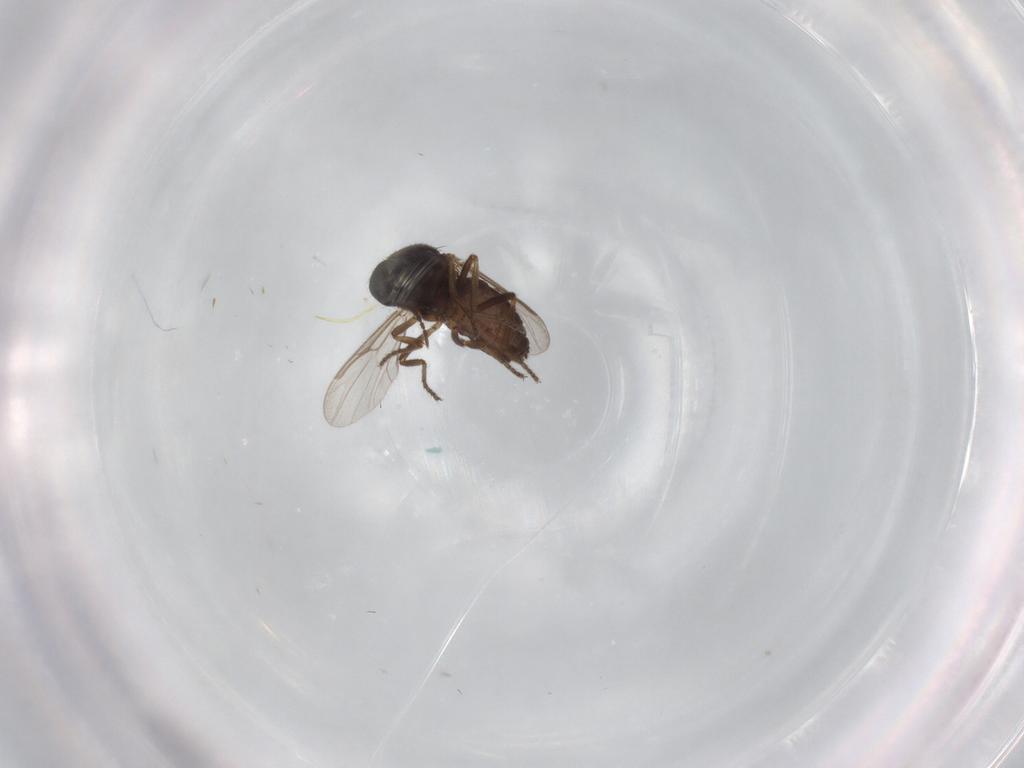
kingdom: Animalia
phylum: Arthropoda
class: Insecta
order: Diptera
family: Ceratopogonidae
